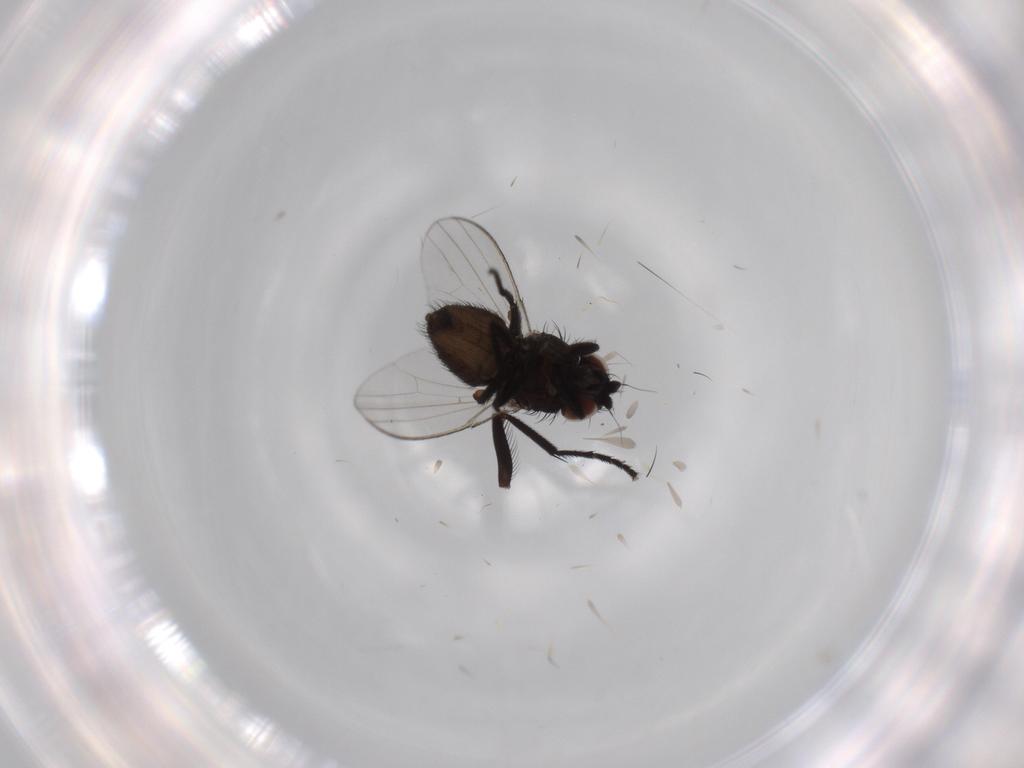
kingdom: Animalia
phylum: Arthropoda
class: Insecta
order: Diptera
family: Milichiidae
